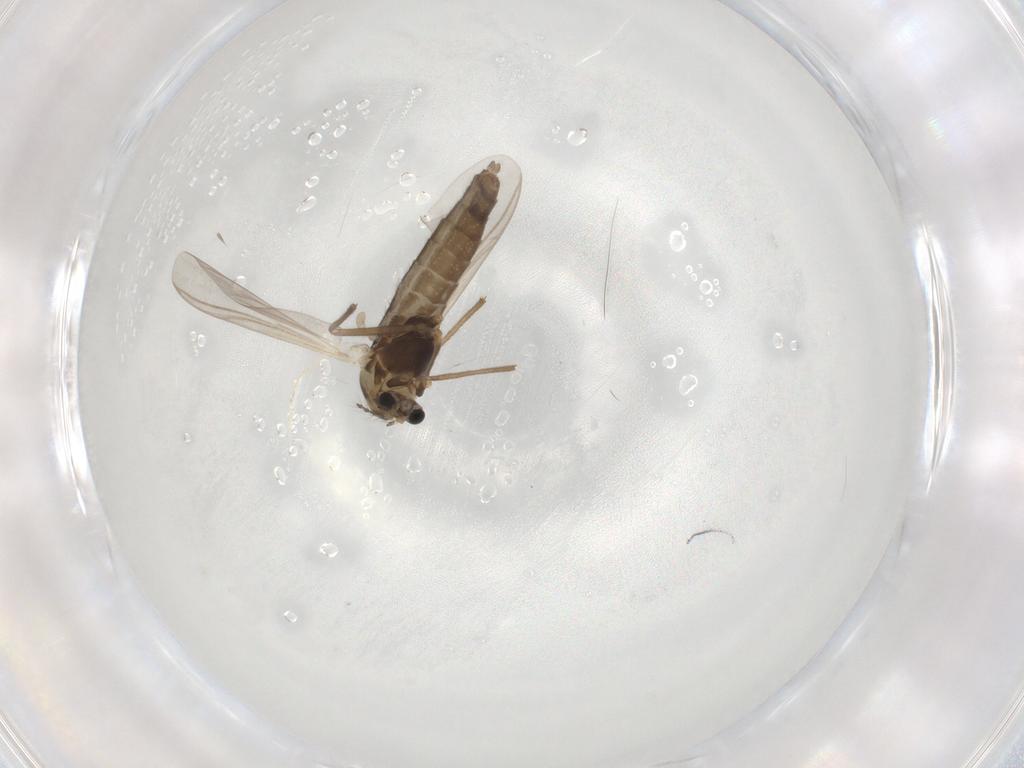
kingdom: Animalia
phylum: Arthropoda
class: Insecta
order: Diptera
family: Chironomidae
